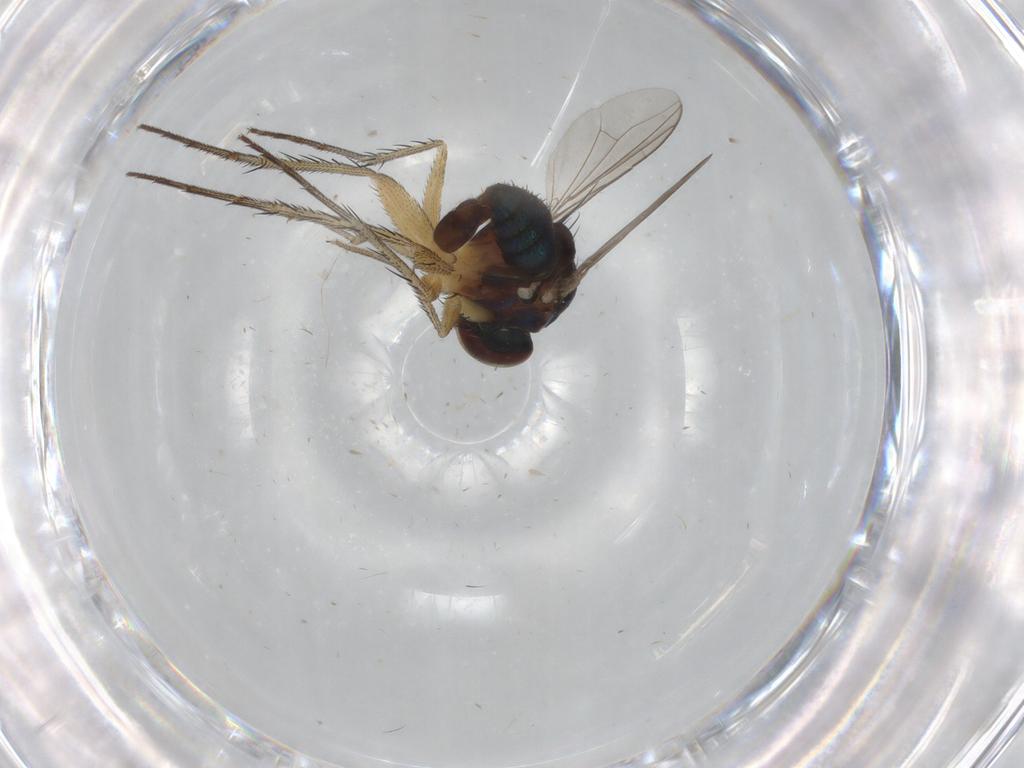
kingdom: Animalia
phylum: Arthropoda
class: Insecta
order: Diptera
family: Dolichopodidae
